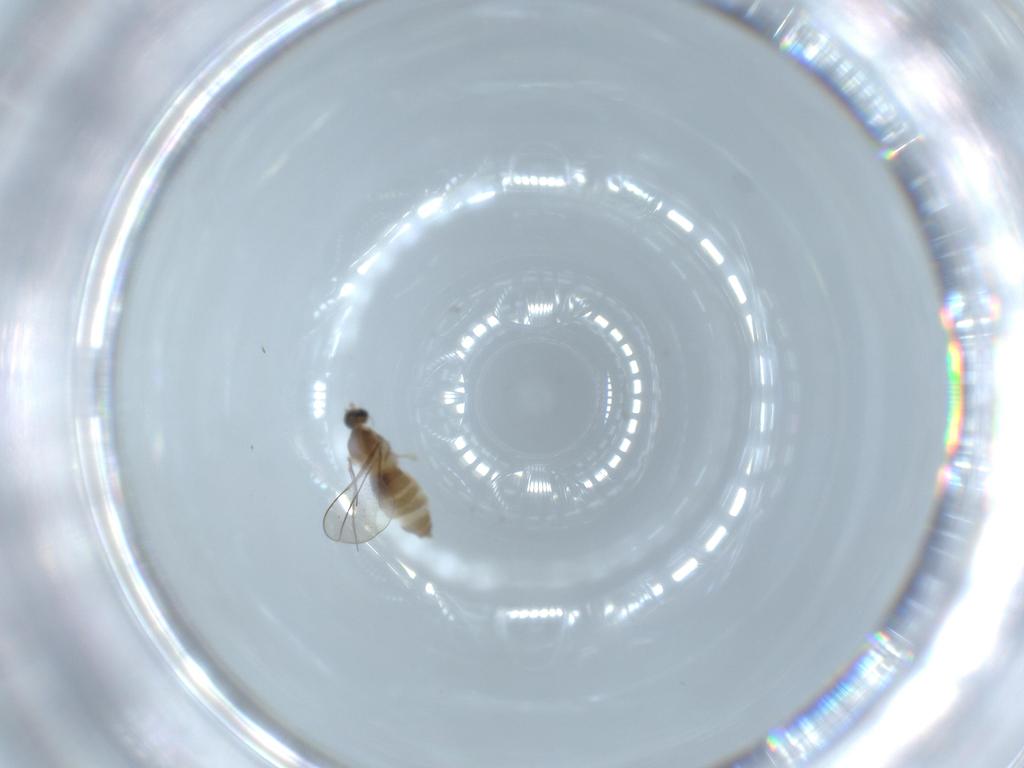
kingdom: Animalia
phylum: Arthropoda
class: Insecta
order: Diptera
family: Cecidomyiidae
